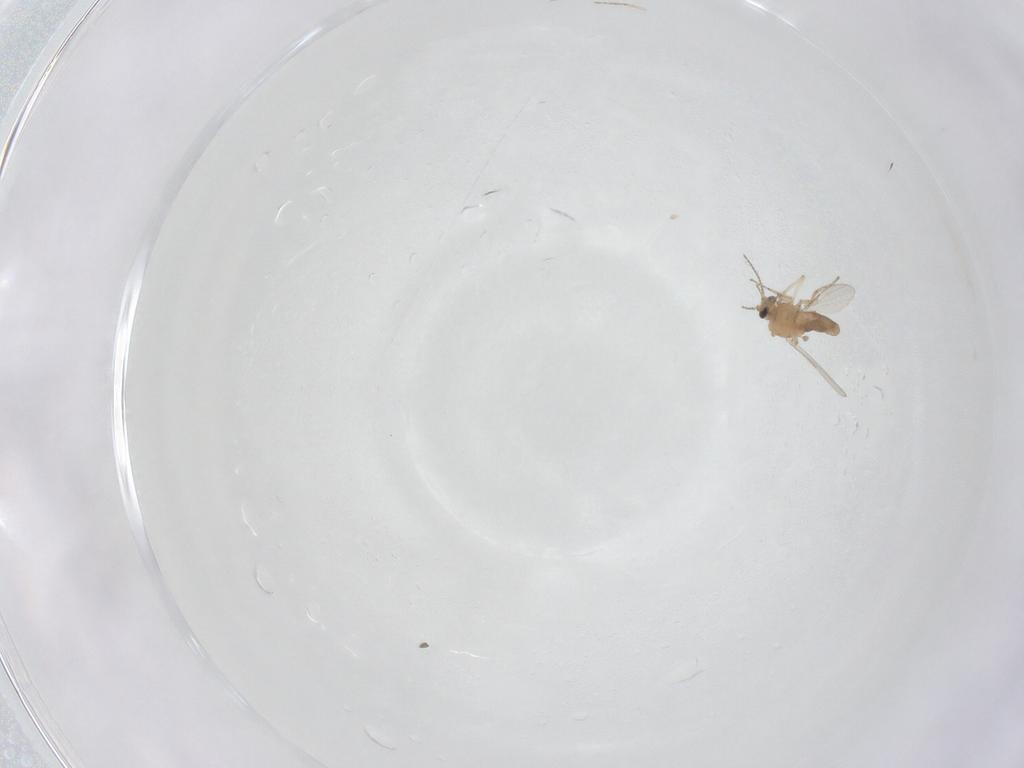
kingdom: Animalia
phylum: Arthropoda
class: Insecta
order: Diptera
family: Ceratopogonidae
